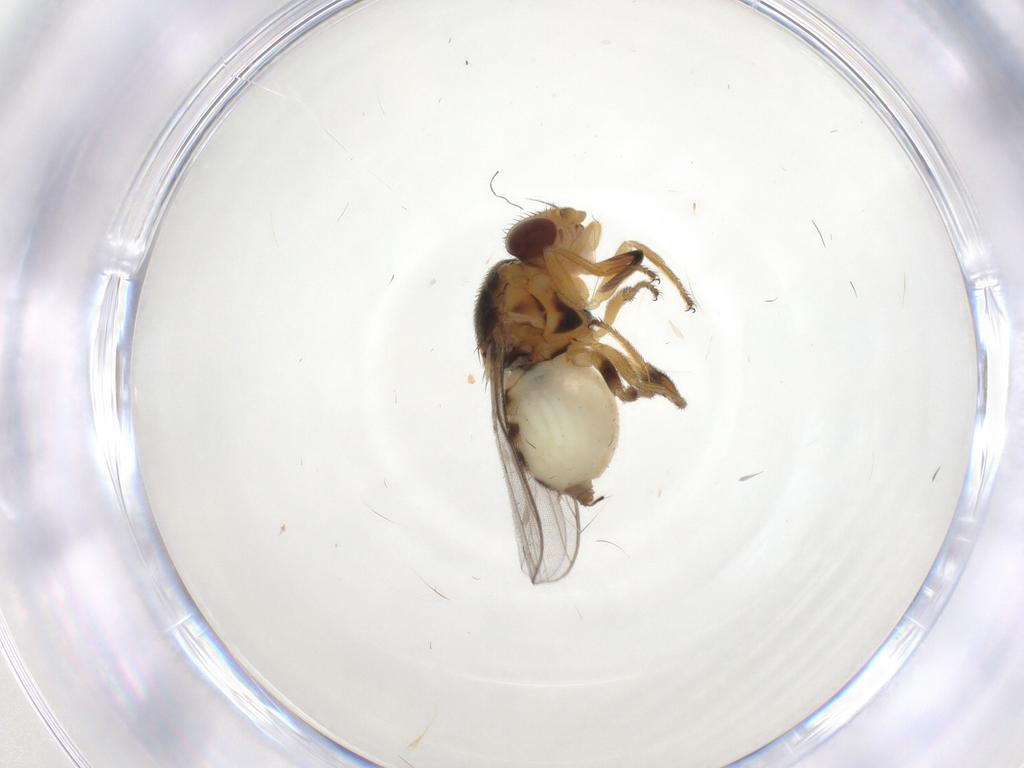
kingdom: Animalia
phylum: Arthropoda
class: Insecta
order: Diptera
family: Chloropidae
